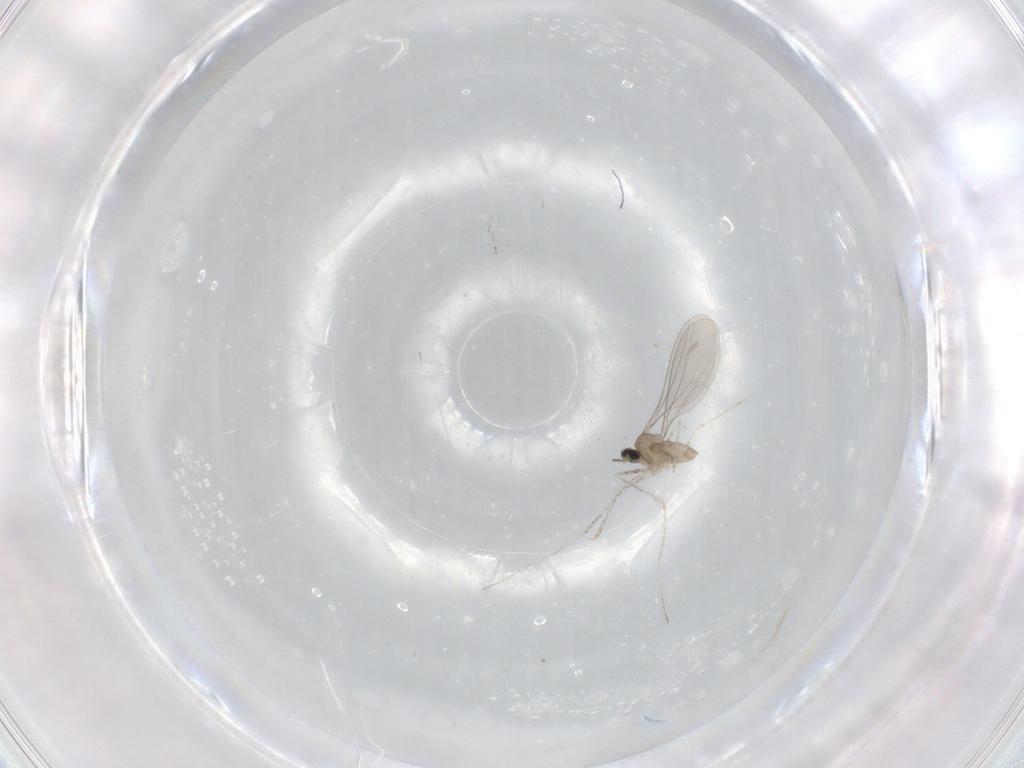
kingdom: Animalia
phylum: Arthropoda
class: Insecta
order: Diptera
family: Cecidomyiidae
